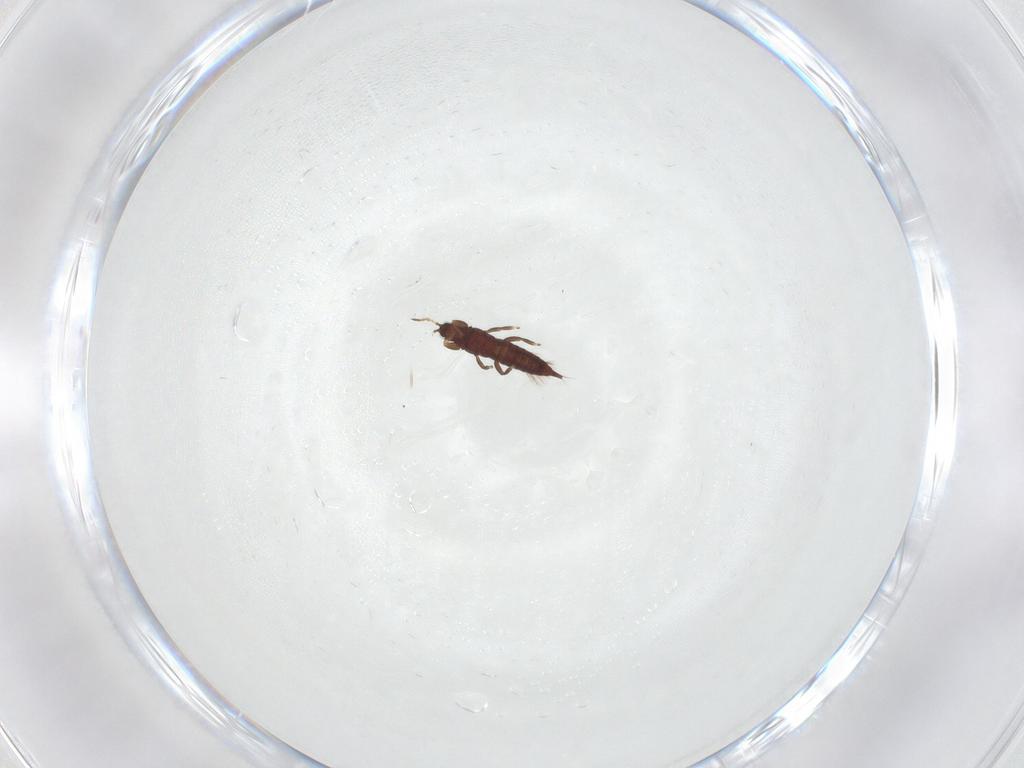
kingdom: Animalia
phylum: Arthropoda
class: Insecta
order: Thysanoptera
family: Phlaeothripidae
